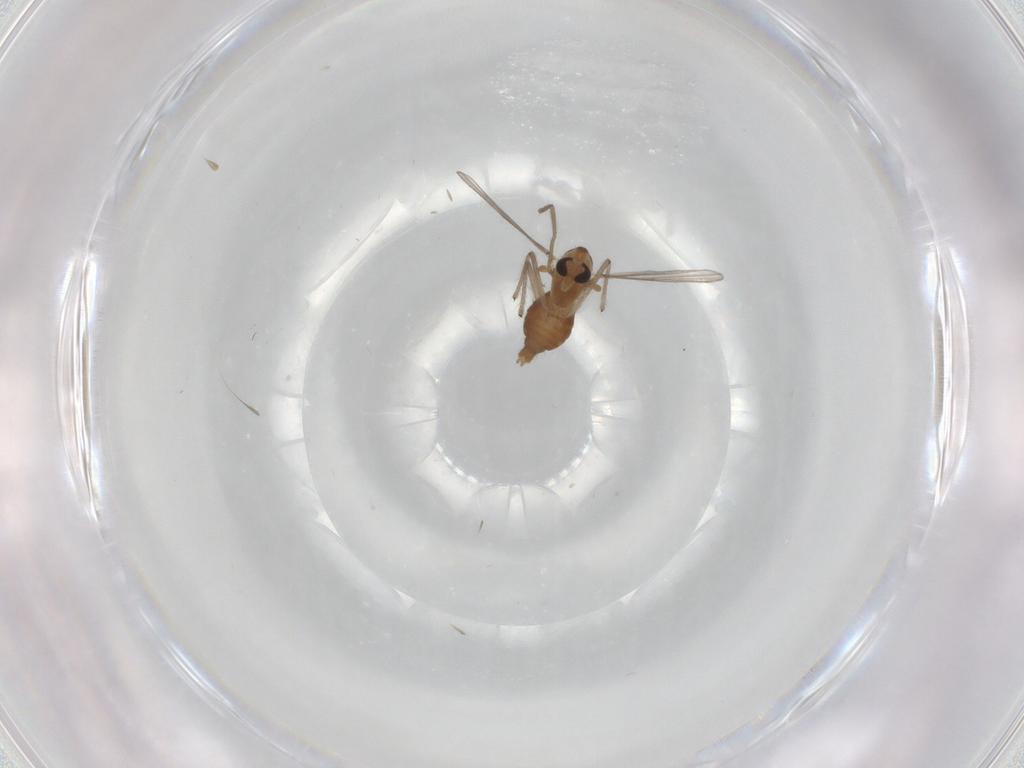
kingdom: Animalia
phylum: Arthropoda
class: Insecta
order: Diptera
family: Chironomidae
